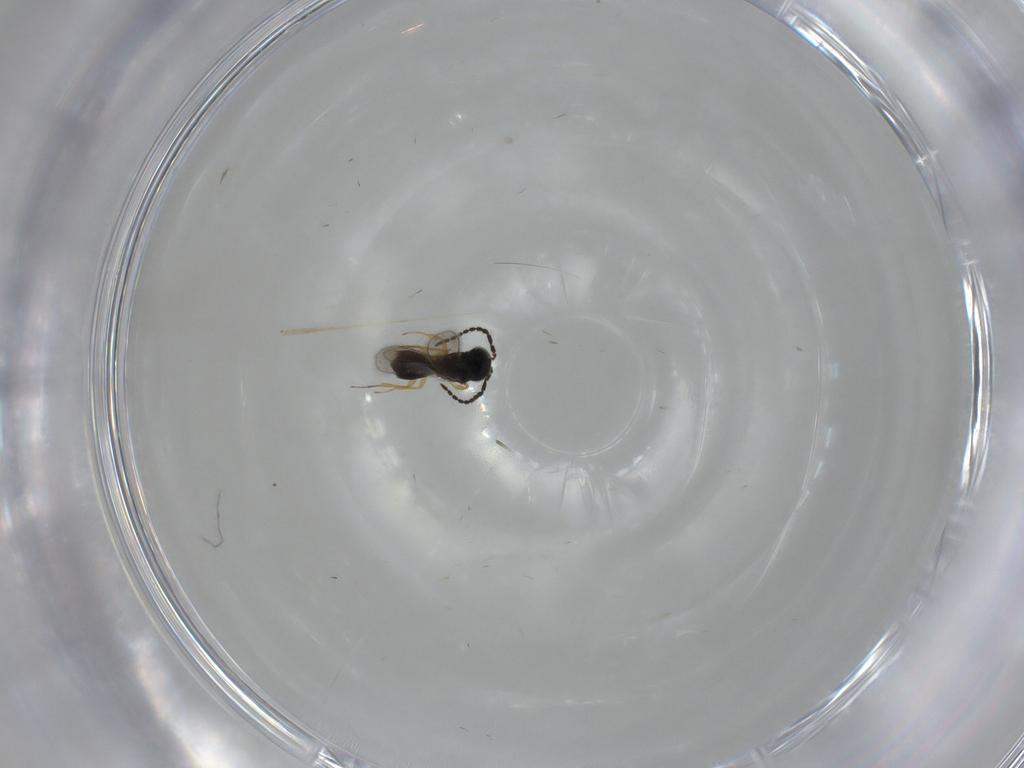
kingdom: Animalia
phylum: Arthropoda
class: Insecta
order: Hymenoptera
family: Scelionidae
